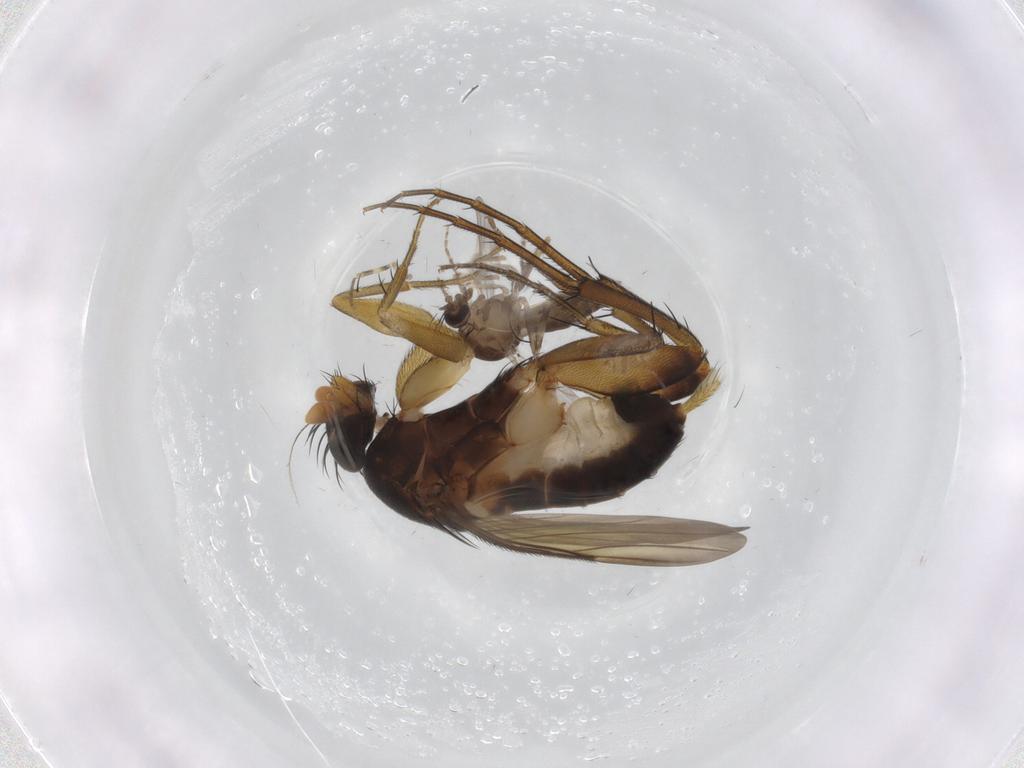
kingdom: Animalia
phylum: Arthropoda
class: Insecta
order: Diptera
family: Phoridae
